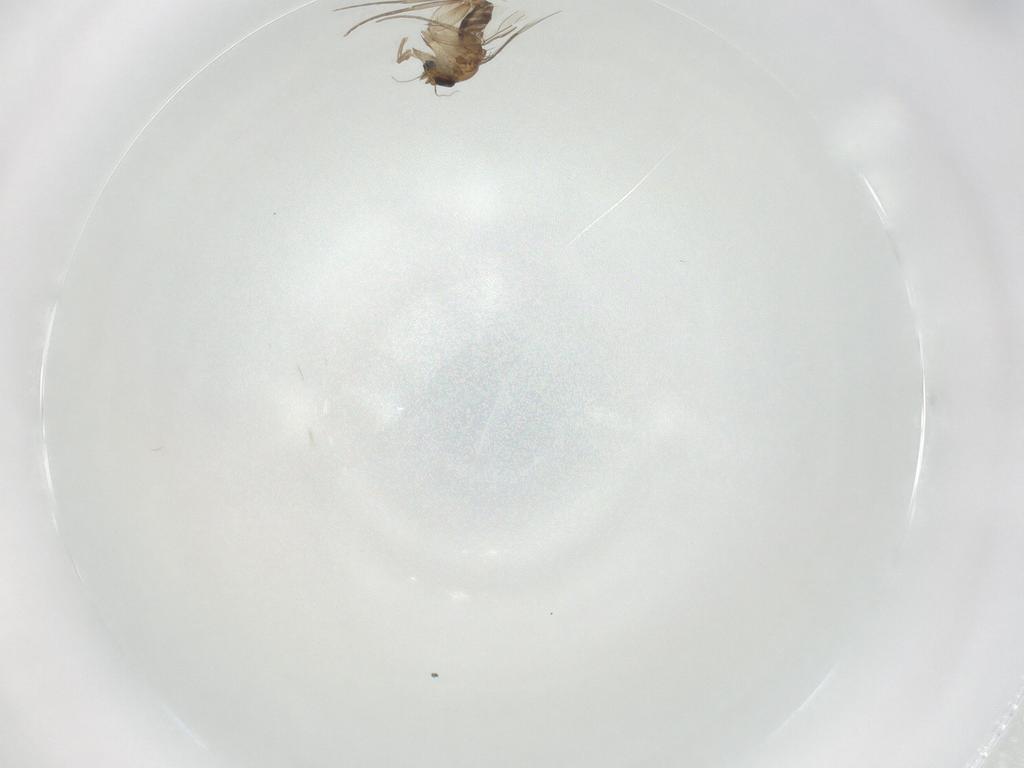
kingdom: Animalia
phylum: Arthropoda
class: Insecta
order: Diptera
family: Phoridae
